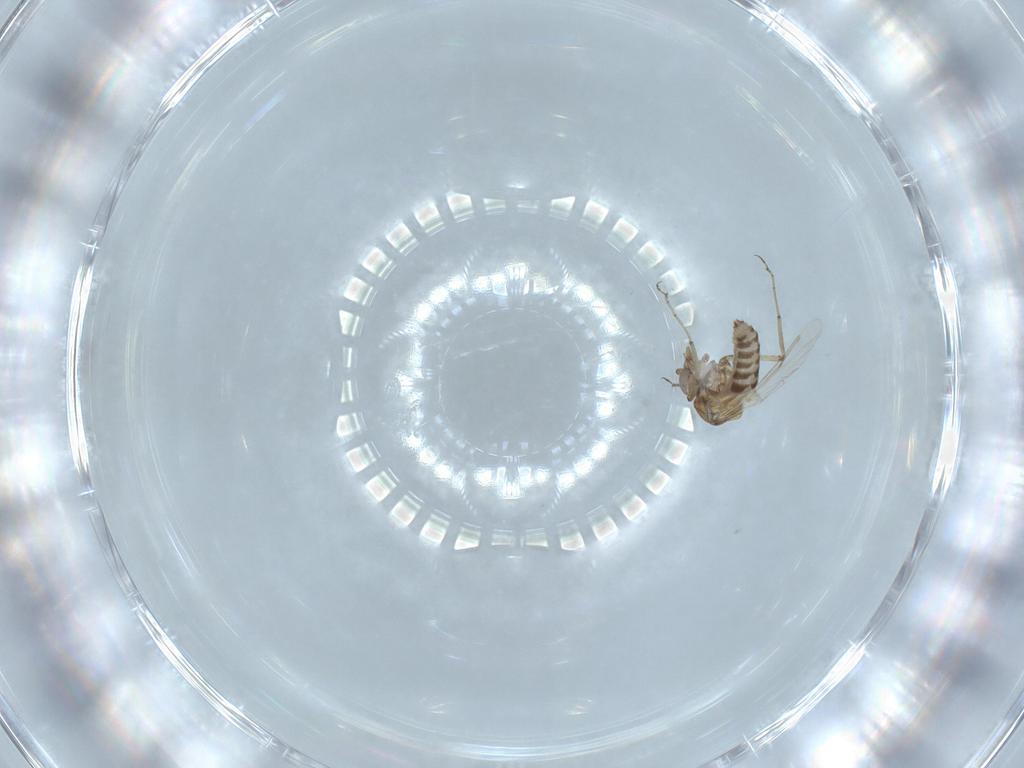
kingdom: Animalia
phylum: Arthropoda
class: Insecta
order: Diptera
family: Ceratopogonidae
